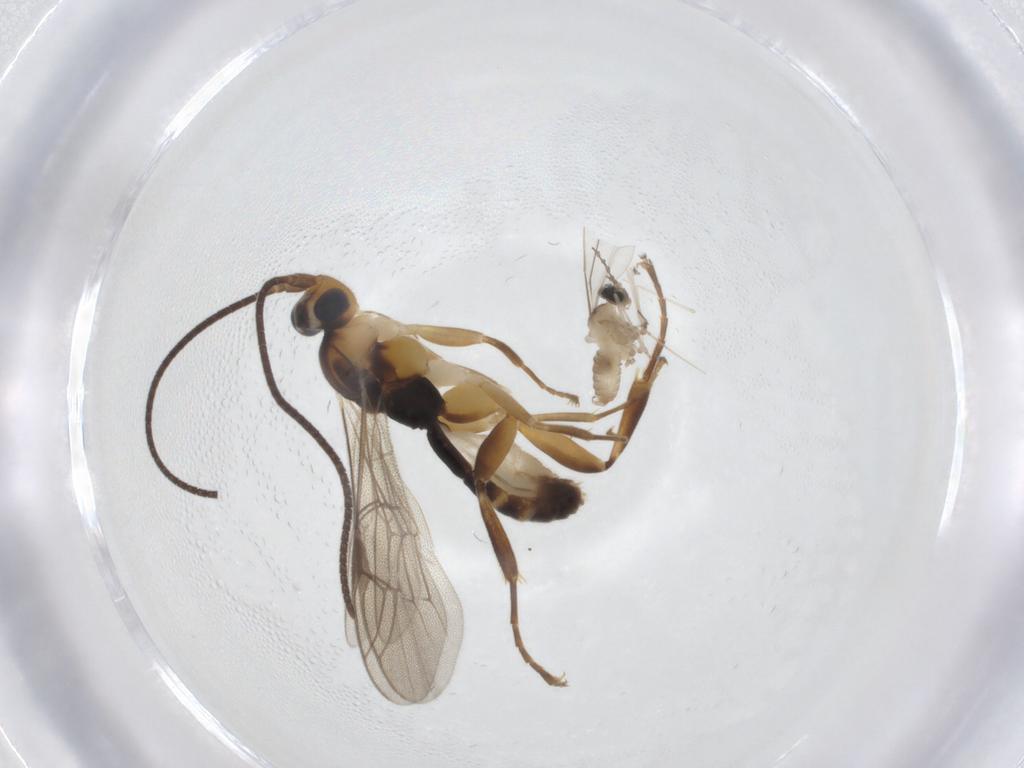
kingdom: Animalia
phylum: Arthropoda
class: Insecta
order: Diptera
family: Cecidomyiidae
